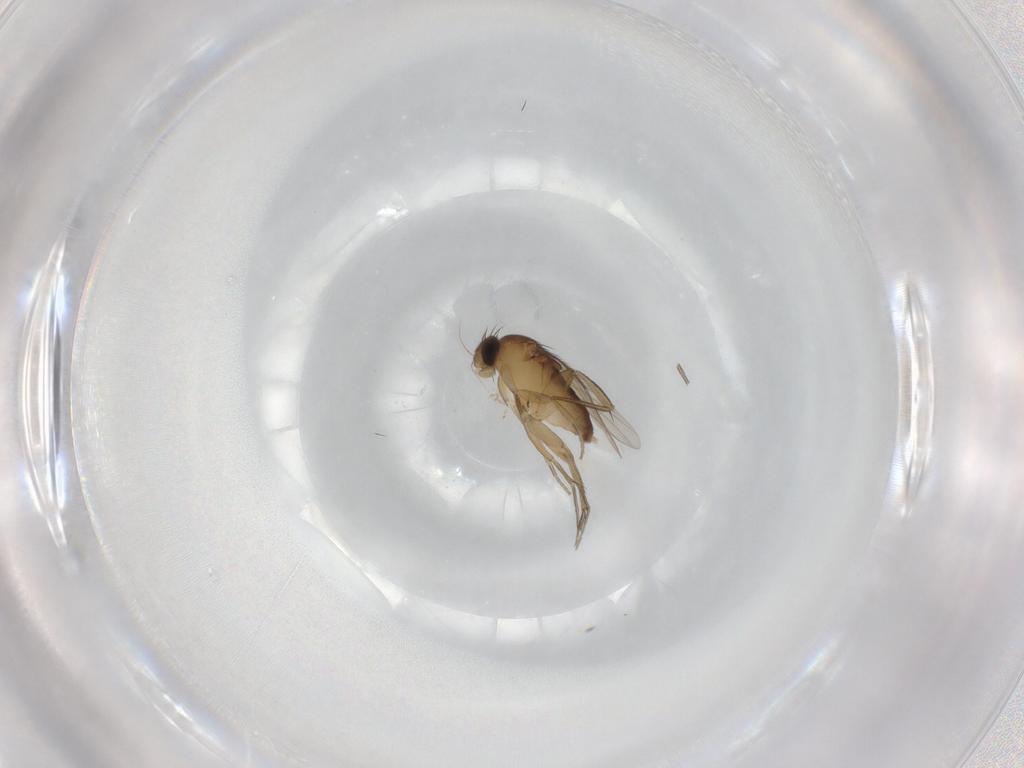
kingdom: Animalia
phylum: Arthropoda
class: Insecta
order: Diptera
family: Phoridae
